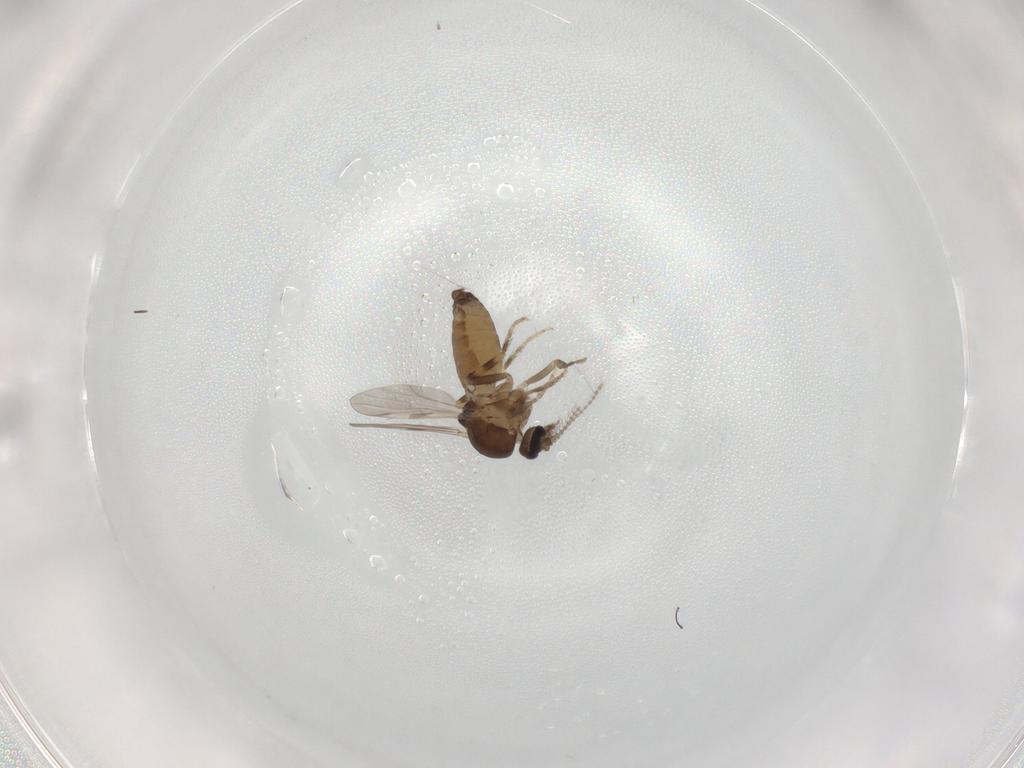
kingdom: Animalia
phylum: Arthropoda
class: Insecta
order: Diptera
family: Ceratopogonidae
